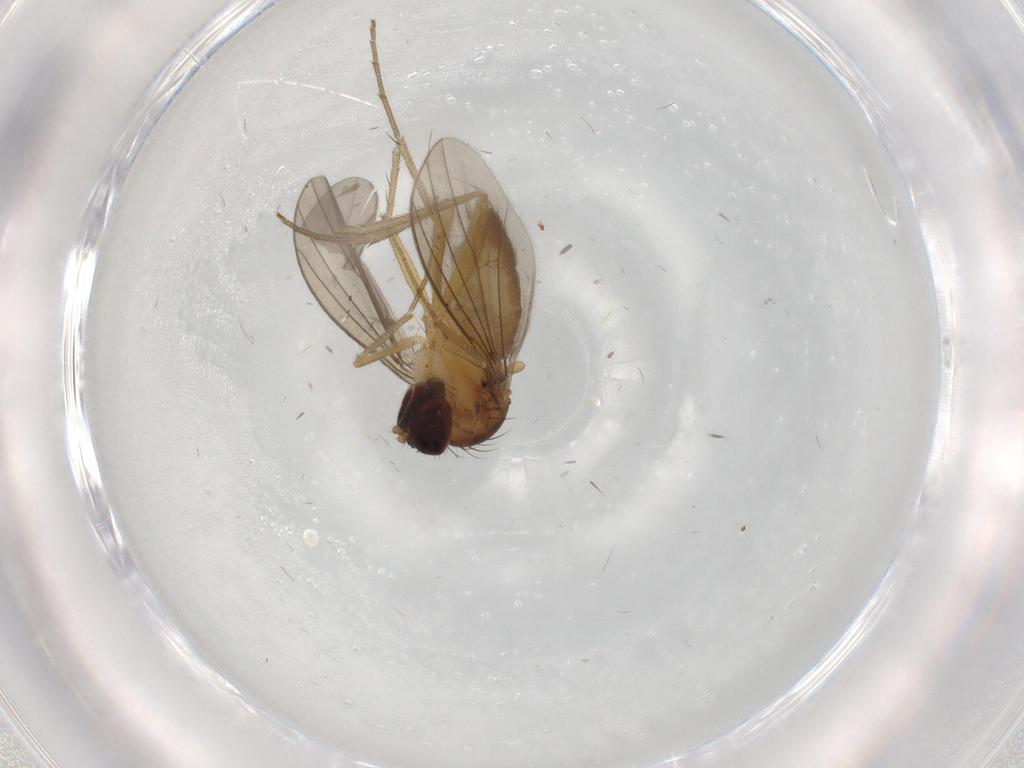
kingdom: Animalia
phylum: Arthropoda
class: Insecta
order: Diptera
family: Dolichopodidae
